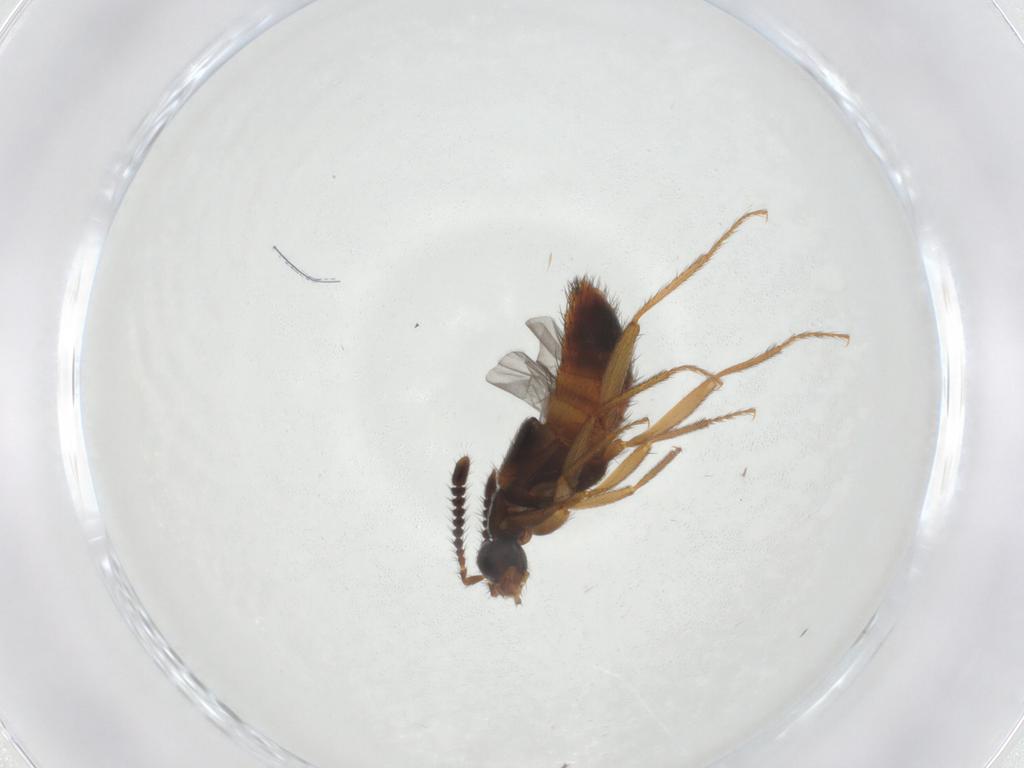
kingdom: Animalia
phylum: Arthropoda
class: Insecta
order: Coleoptera
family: Staphylinidae
